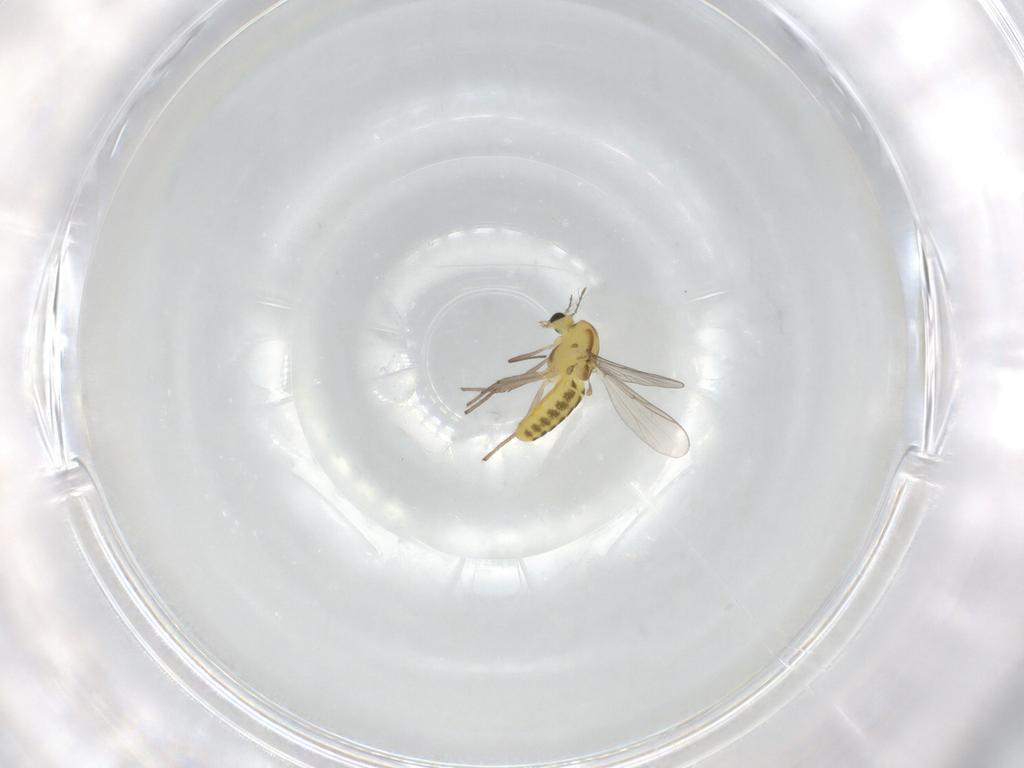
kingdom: Animalia
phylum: Arthropoda
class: Insecta
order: Diptera
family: Chironomidae
